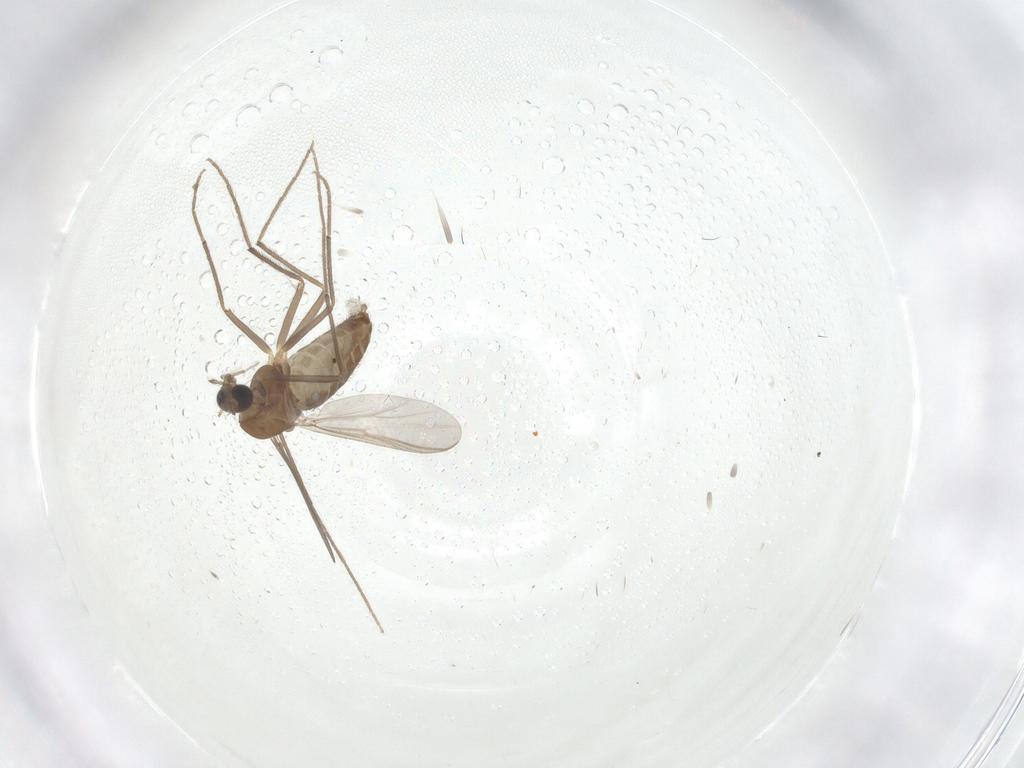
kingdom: Animalia
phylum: Arthropoda
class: Insecta
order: Diptera
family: Chironomidae
